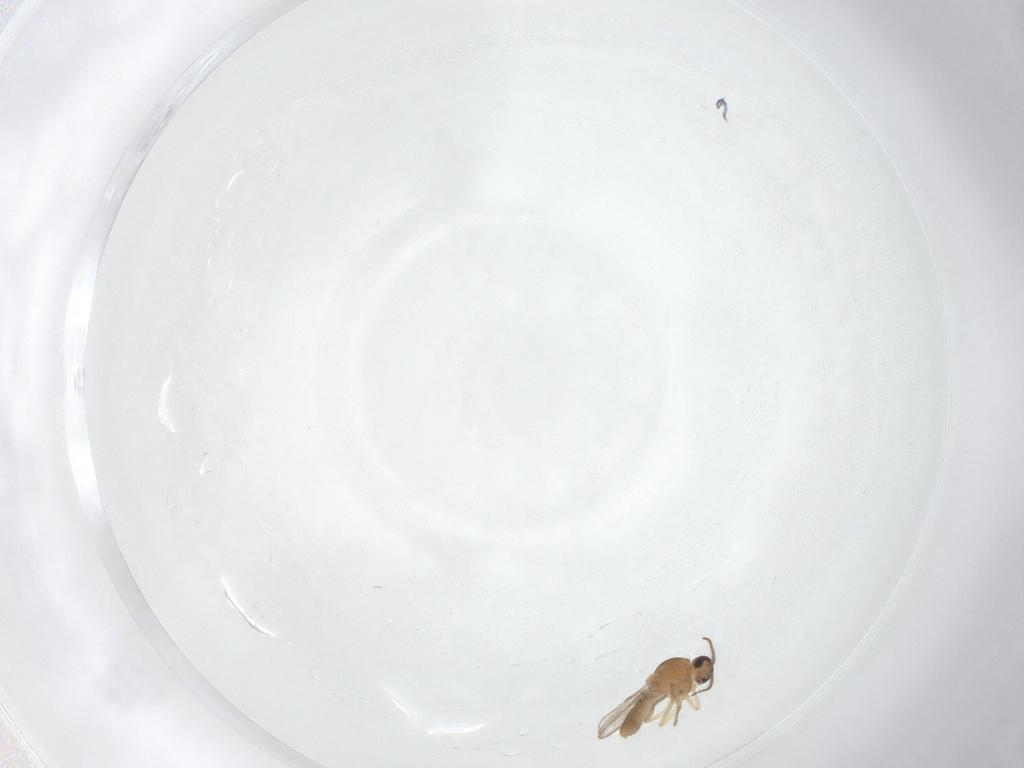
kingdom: Animalia
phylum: Arthropoda
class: Insecta
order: Diptera
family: Ceratopogonidae
